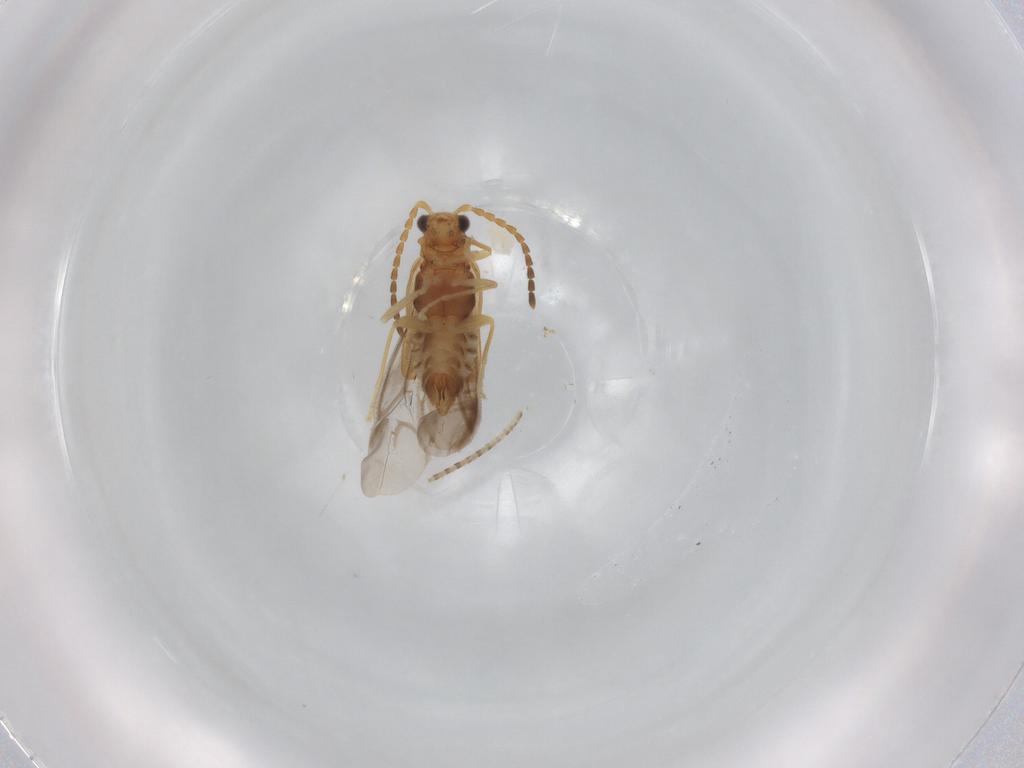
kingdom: Animalia
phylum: Arthropoda
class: Insecta
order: Coleoptera
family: Cantharidae
